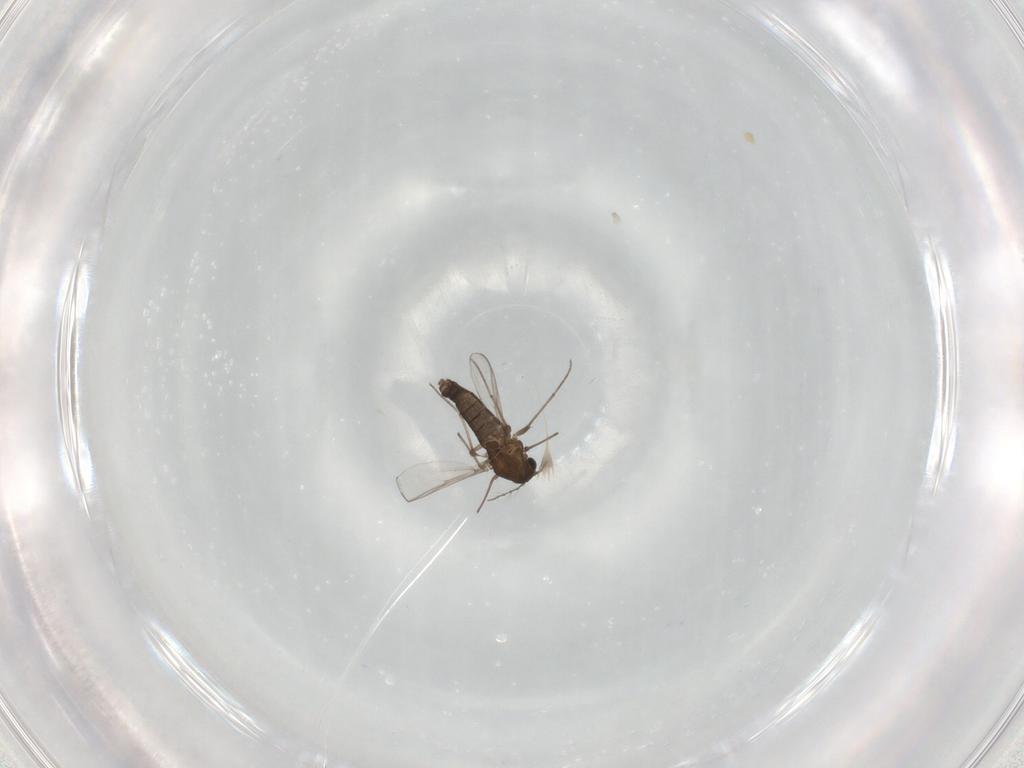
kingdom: Animalia
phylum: Arthropoda
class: Insecta
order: Diptera
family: Chironomidae
